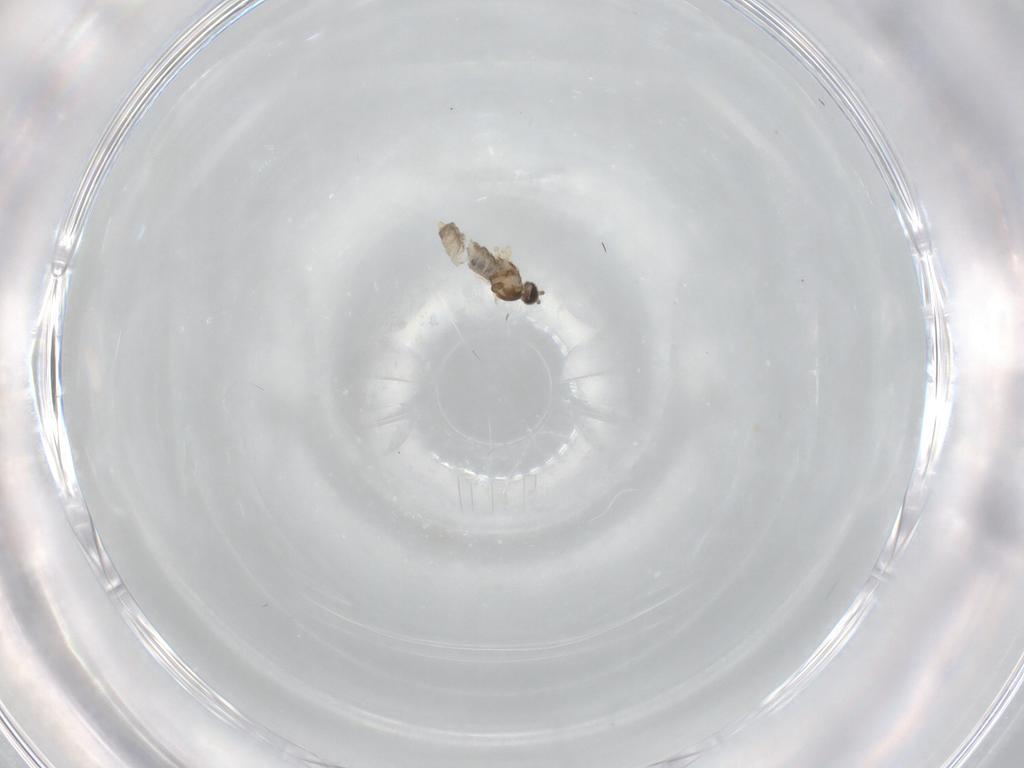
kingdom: Animalia
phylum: Arthropoda
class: Insecta
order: Diptera
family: Cecidomyiidae
